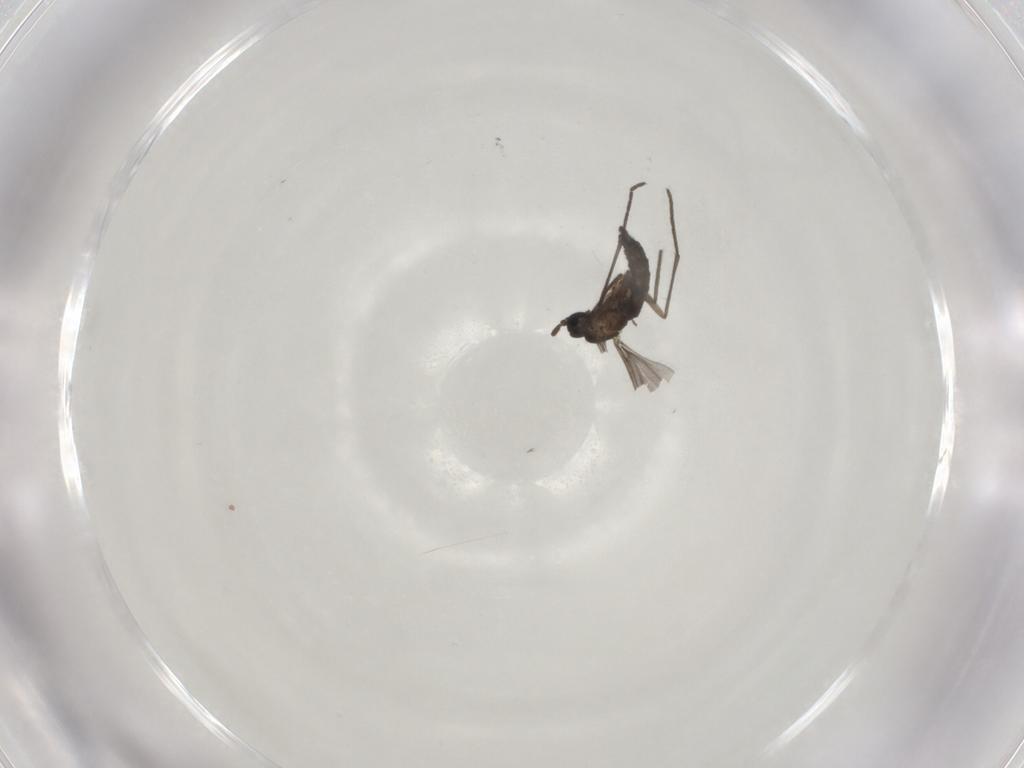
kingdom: Animalia
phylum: Arthropoda
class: Insecta
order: Diptera
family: Sciaridae
